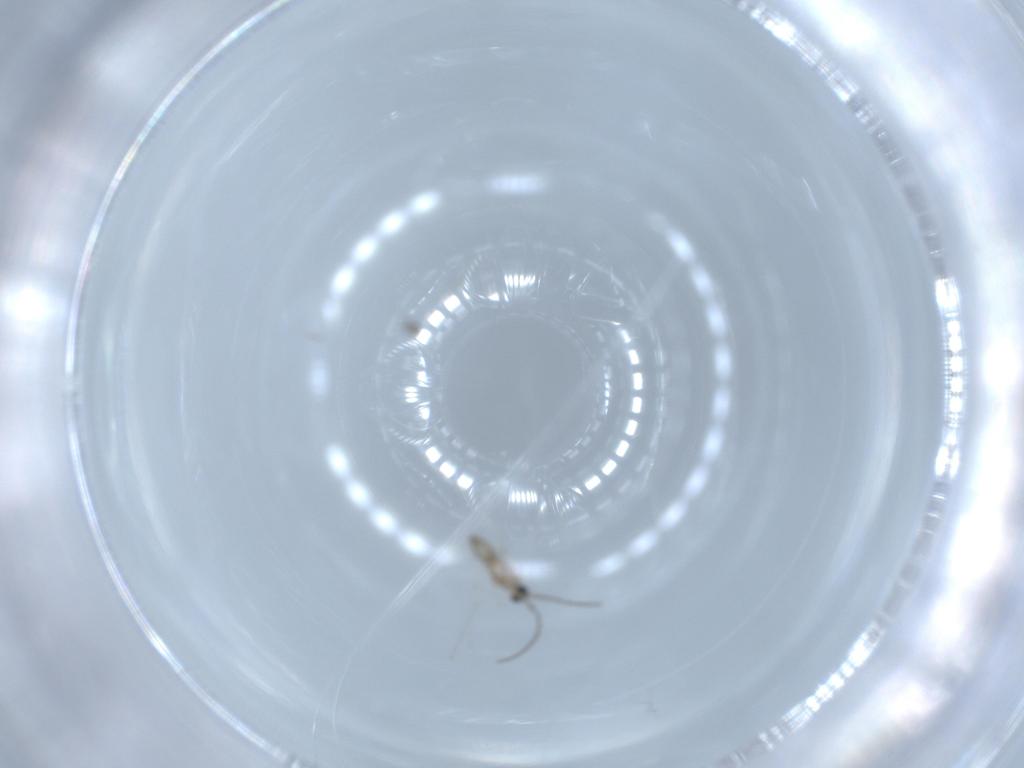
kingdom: Animalia
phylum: Arthropoda
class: Insecta
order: Diptera
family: Cecidomyiidae
